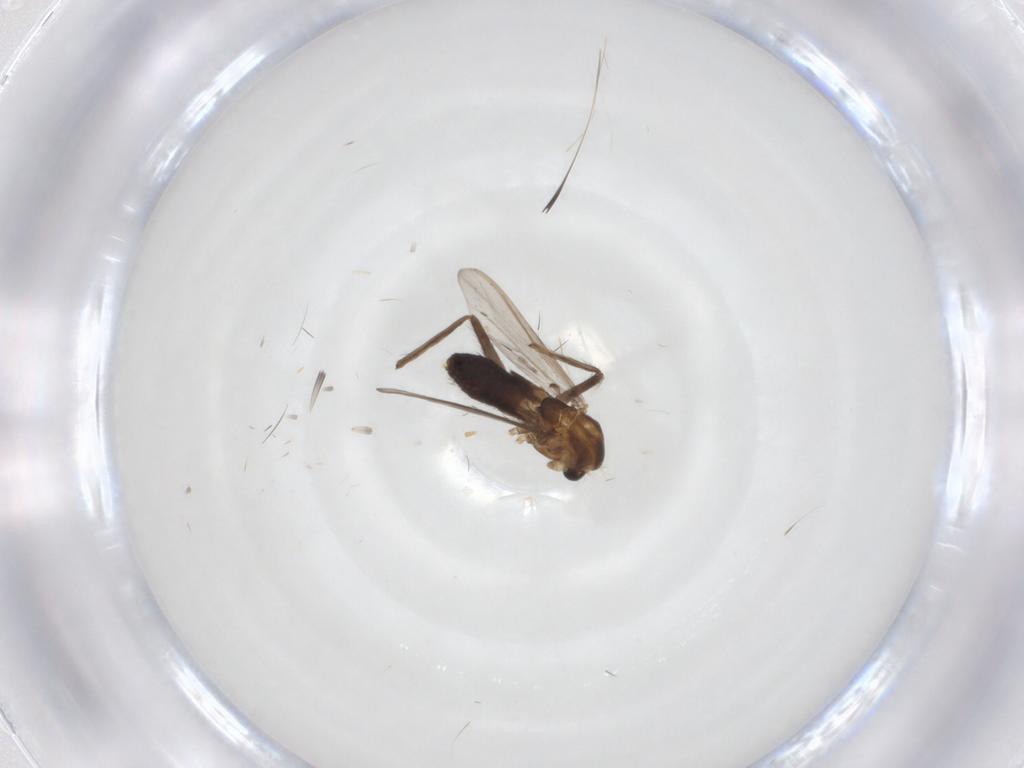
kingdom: Animalia
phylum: Arthropoda
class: Insecta
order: Diptera
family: Chironomidae
